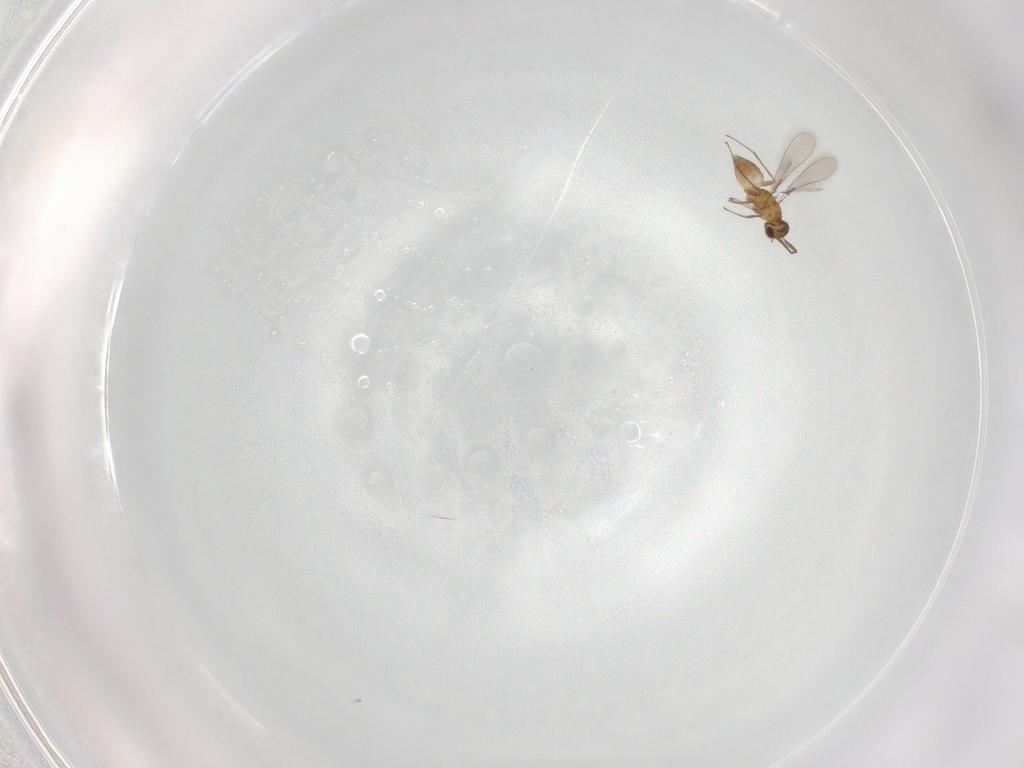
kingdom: Animalia
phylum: Arthropoda
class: Insecta
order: Hymenoptera
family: Mymaridae
